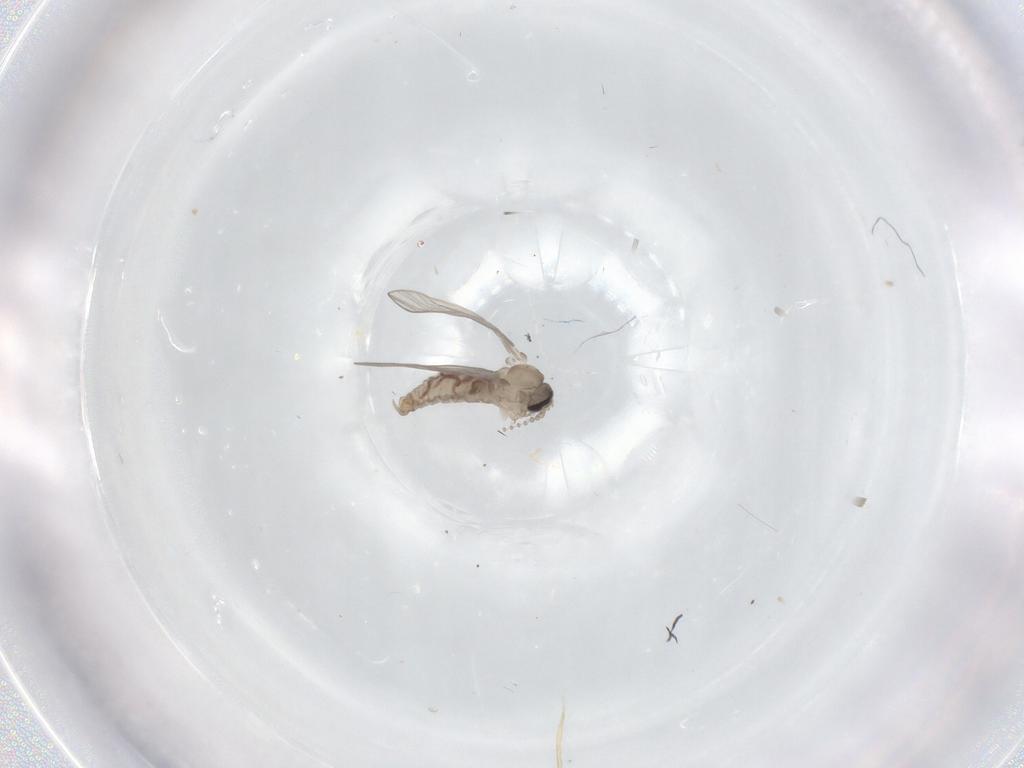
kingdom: Animalia
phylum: Arthropoda
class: Insecta
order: Diptera
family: Psychodidae
